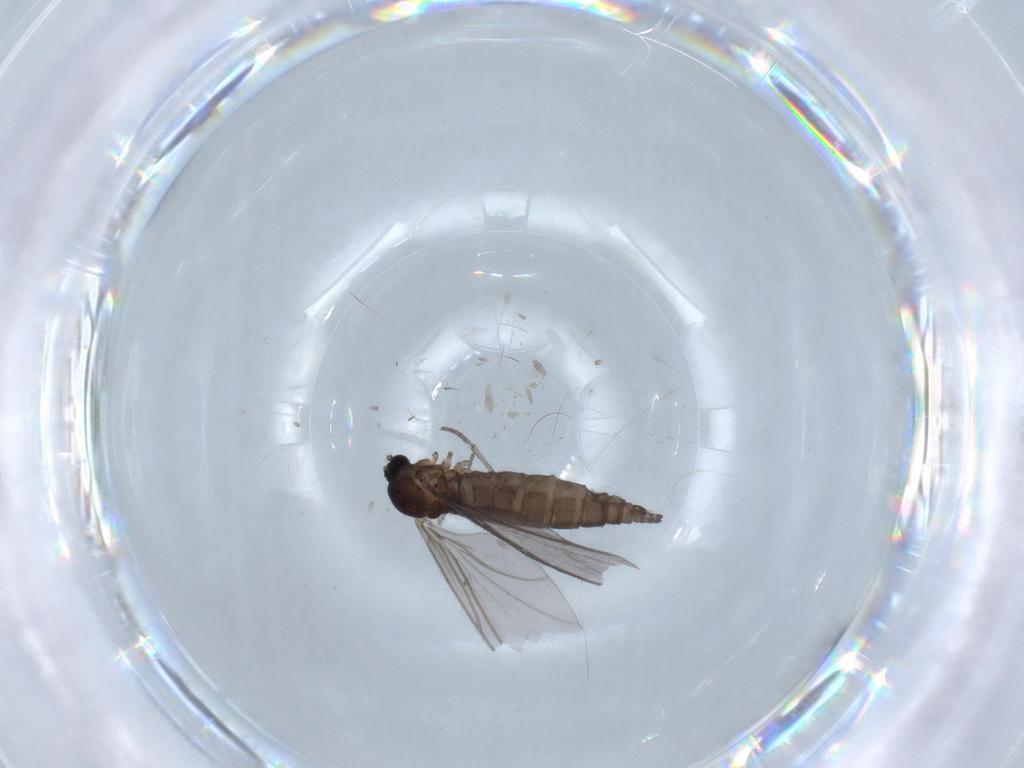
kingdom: Animalia
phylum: Arthropoda
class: Insecta
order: Diptera
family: Sciaridae
